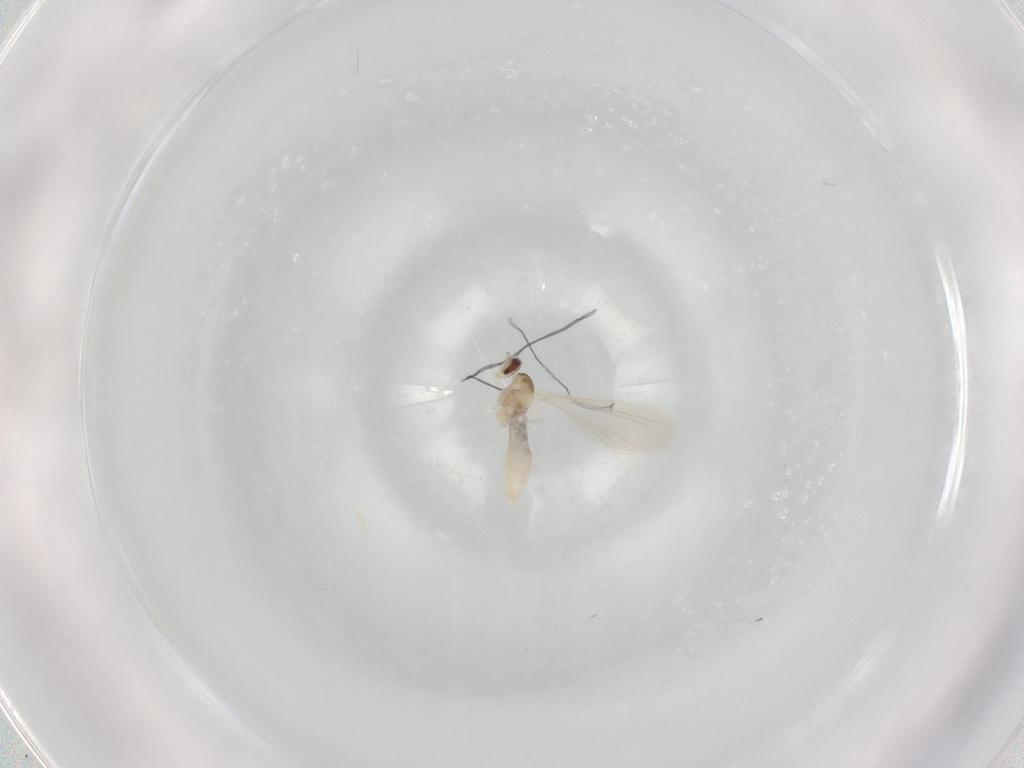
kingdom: Animalia
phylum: Arthropoda
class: Insecta
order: Diptera
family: Chironomidae
